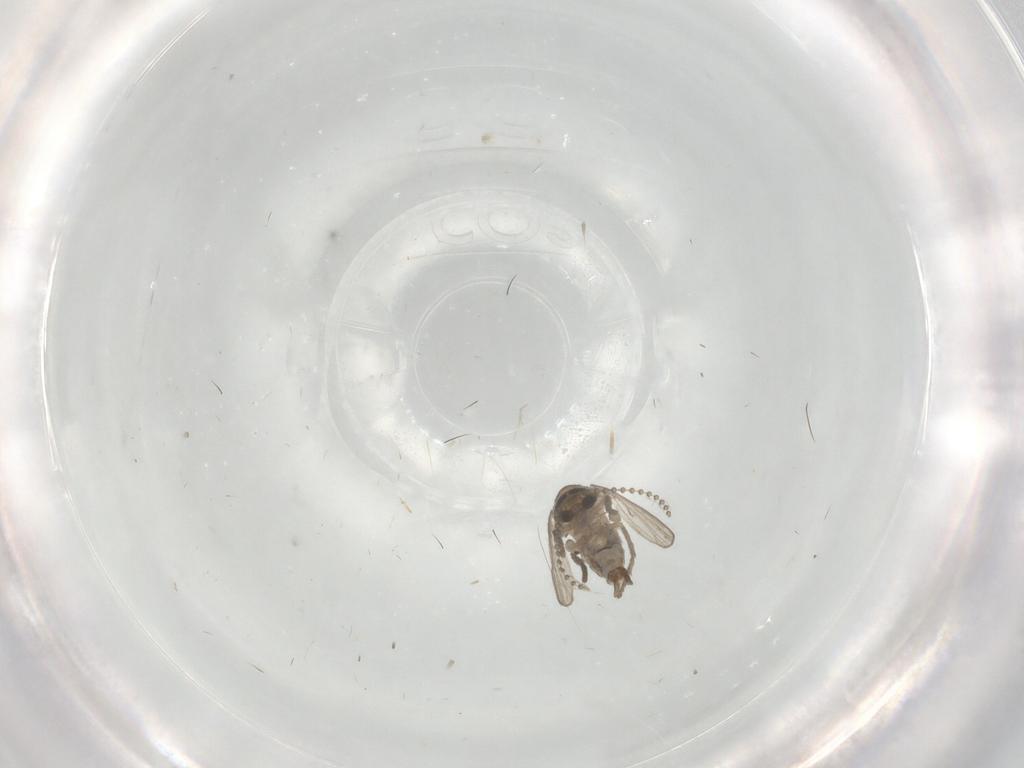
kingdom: Animalia
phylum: Arthropoda
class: Insecta
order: Diptera
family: Psychodidae
